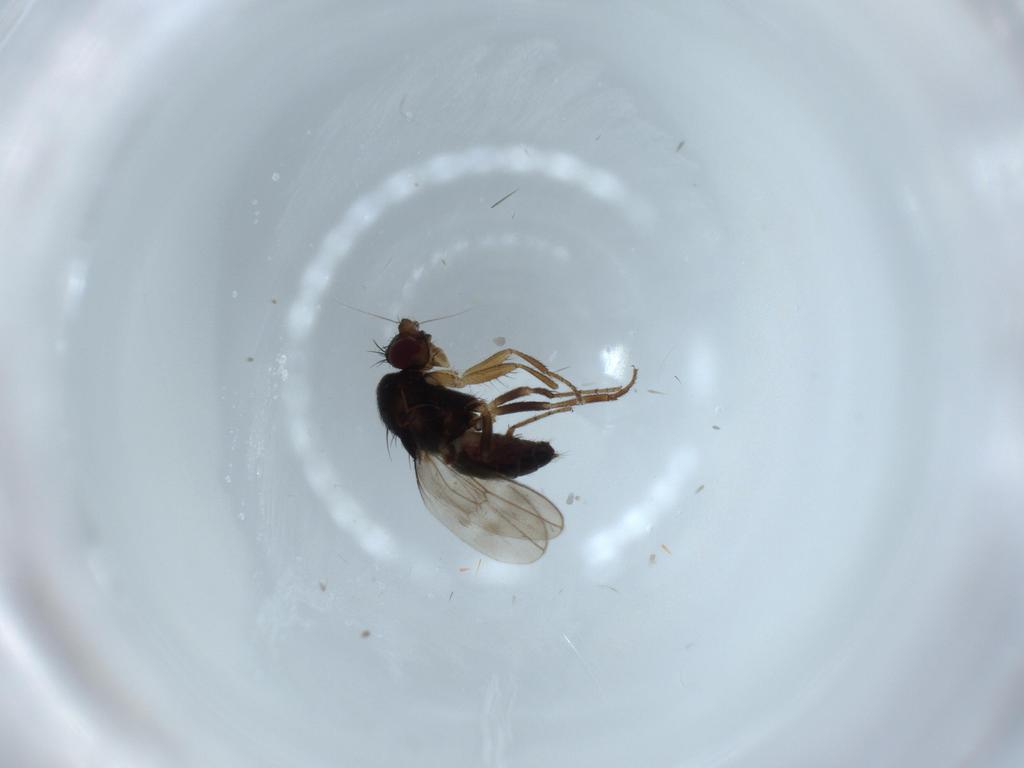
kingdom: Animalia
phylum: Arthropoda
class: Insecta
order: Diptera
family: Sphaeroceridae
